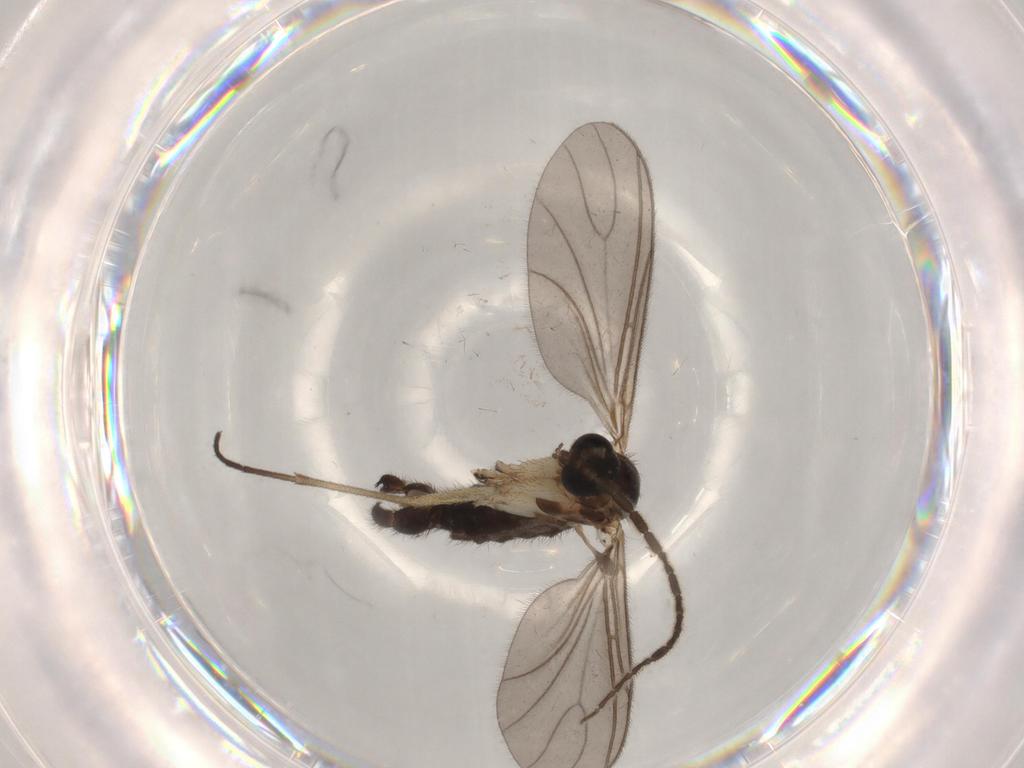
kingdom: Animalia
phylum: Arthropoda
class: Insecta
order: Diptera
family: Sciaridae
